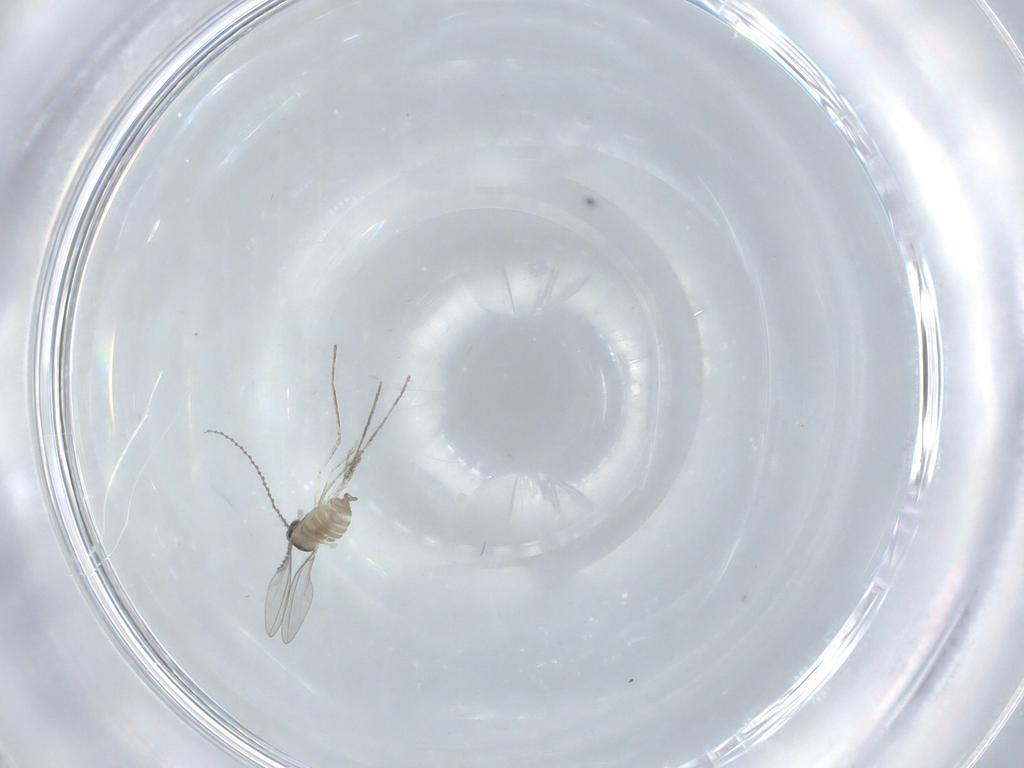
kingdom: Animalia
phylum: Arthropoda
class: Insecta
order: Diptera
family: Cecidomyiidae
